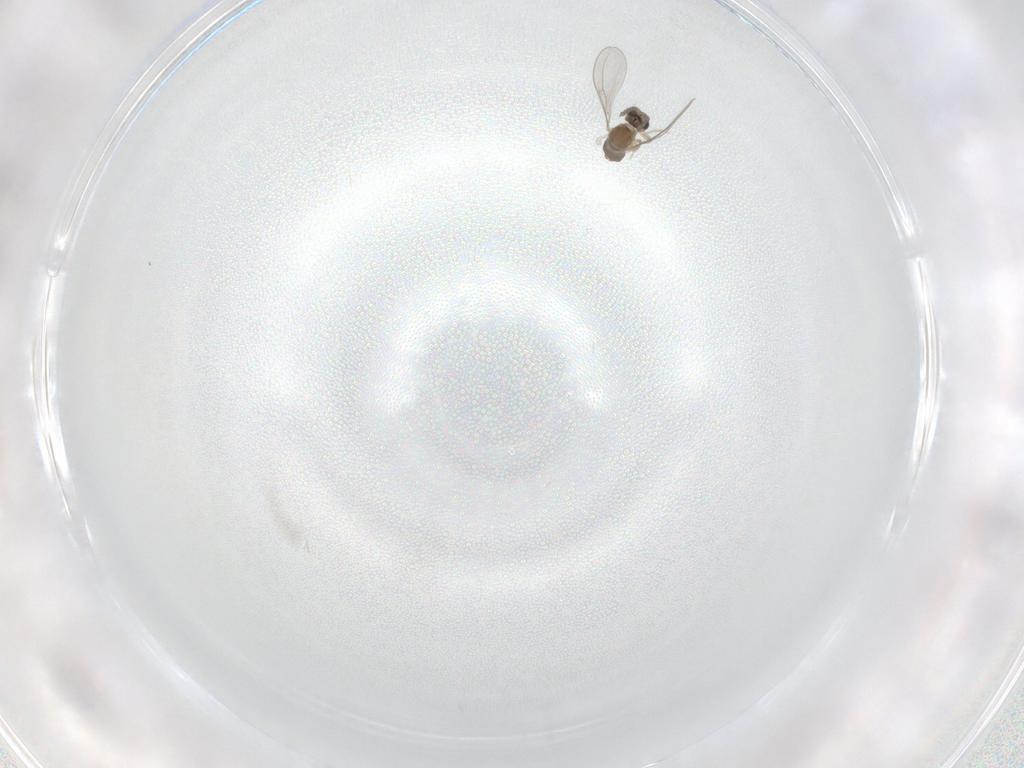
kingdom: Animalia
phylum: Arthropoda
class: Insecta
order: Diptera
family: Cecidomyiidae
